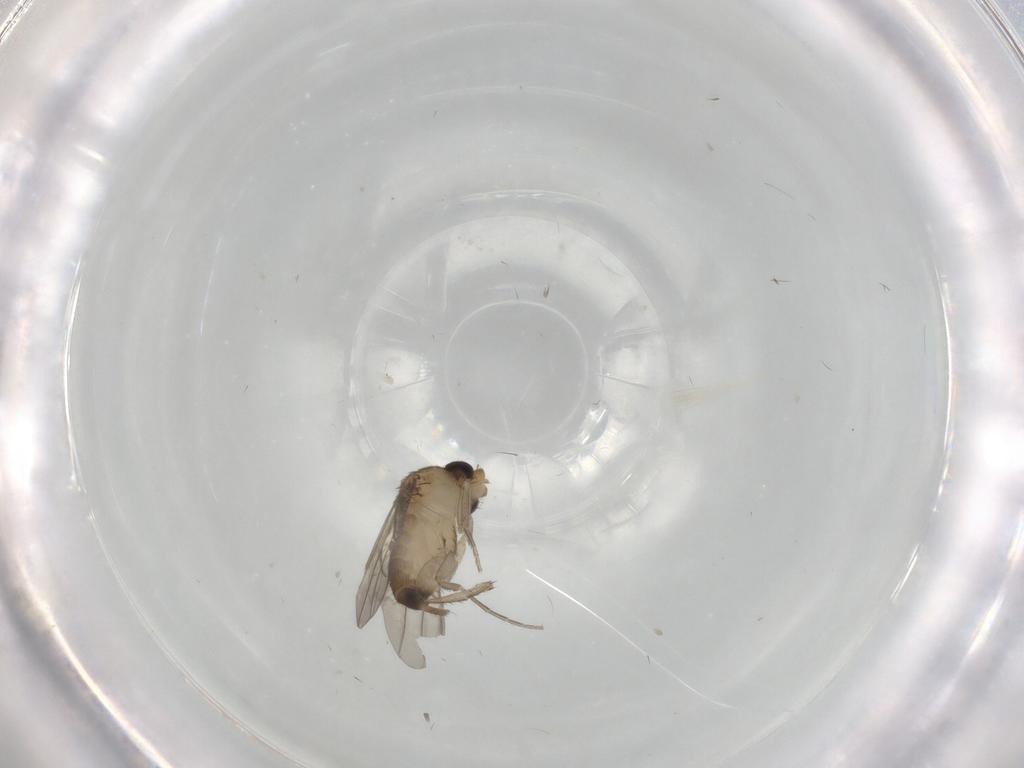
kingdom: Animalia
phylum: Arthropoda
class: Insecta
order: Diptera
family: Phoridae
